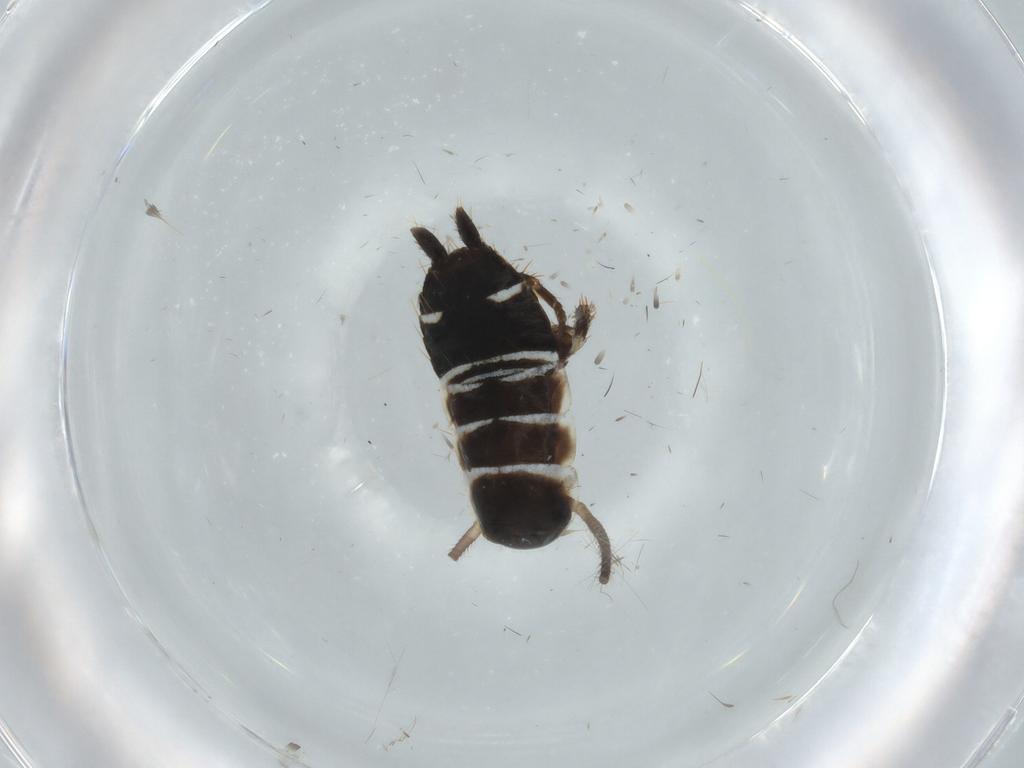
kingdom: Animalia
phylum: Arthropoda
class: Insecta
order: Blattodea
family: Ectobiidae
